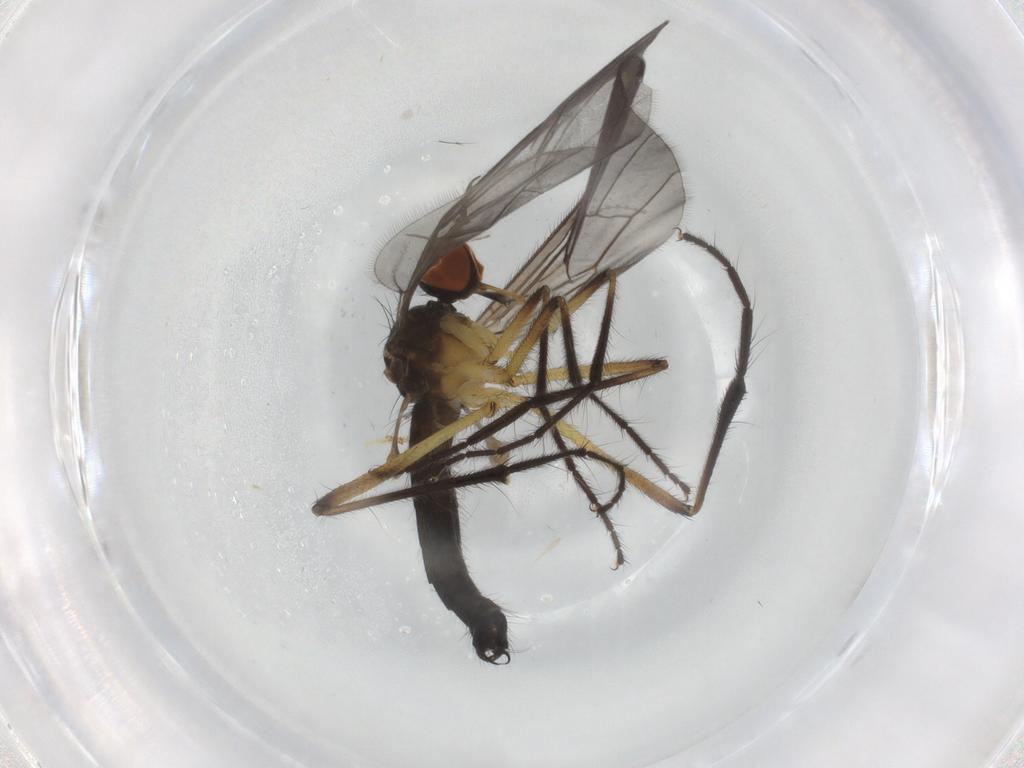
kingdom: Animalia
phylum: Arthropoda
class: Insecta
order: Diptera
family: Empididae
